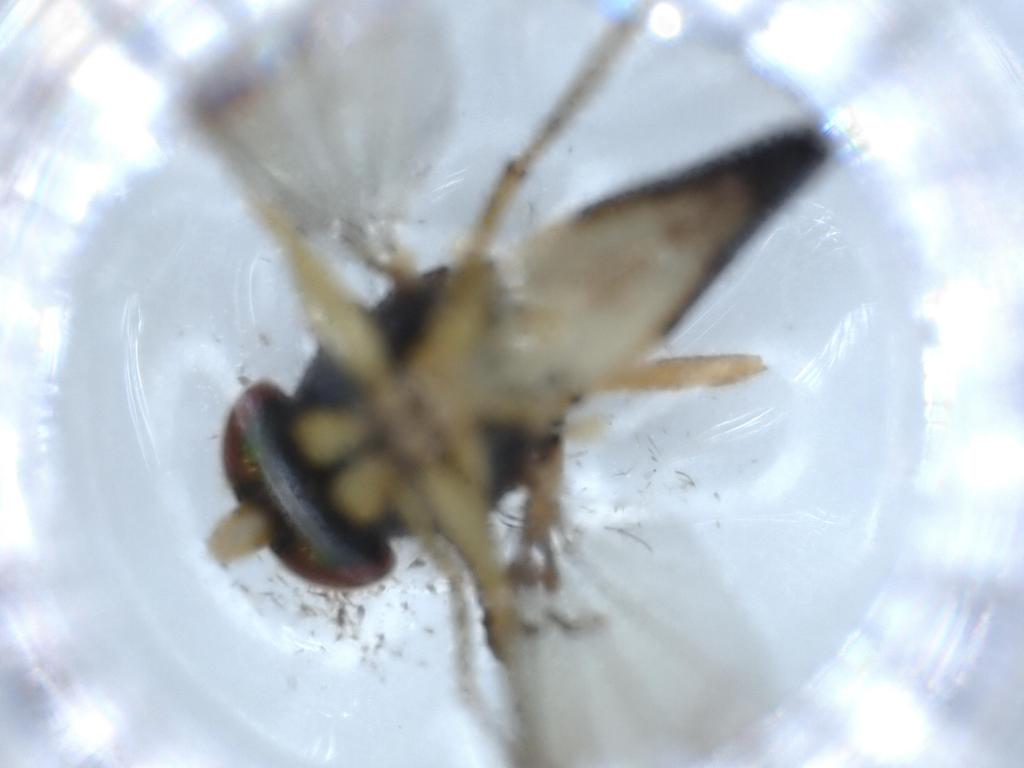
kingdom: Animalia
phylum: Arthropoda
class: Insecta
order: Diptera
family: Dolichopodidae
